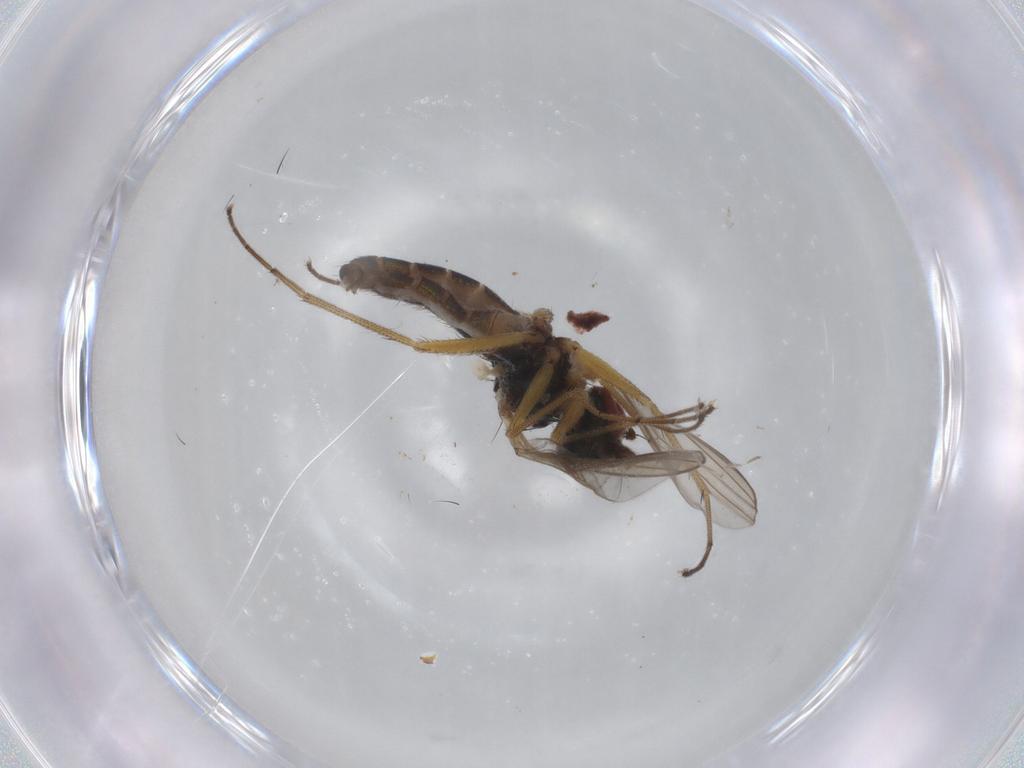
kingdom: Animalia
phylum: Arthropoda
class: Insecta
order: Diptera
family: Dolichopodidae
